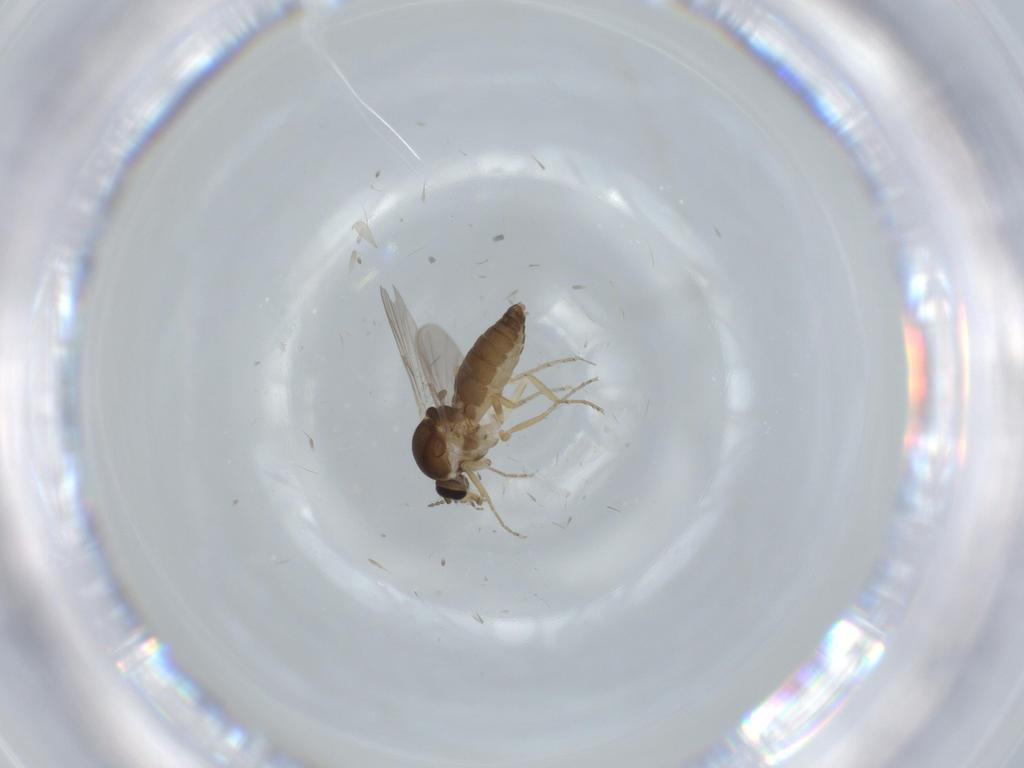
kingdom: Animalia
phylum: Arthropoda
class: Insecta
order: Diptera
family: Ceratopogonidae
